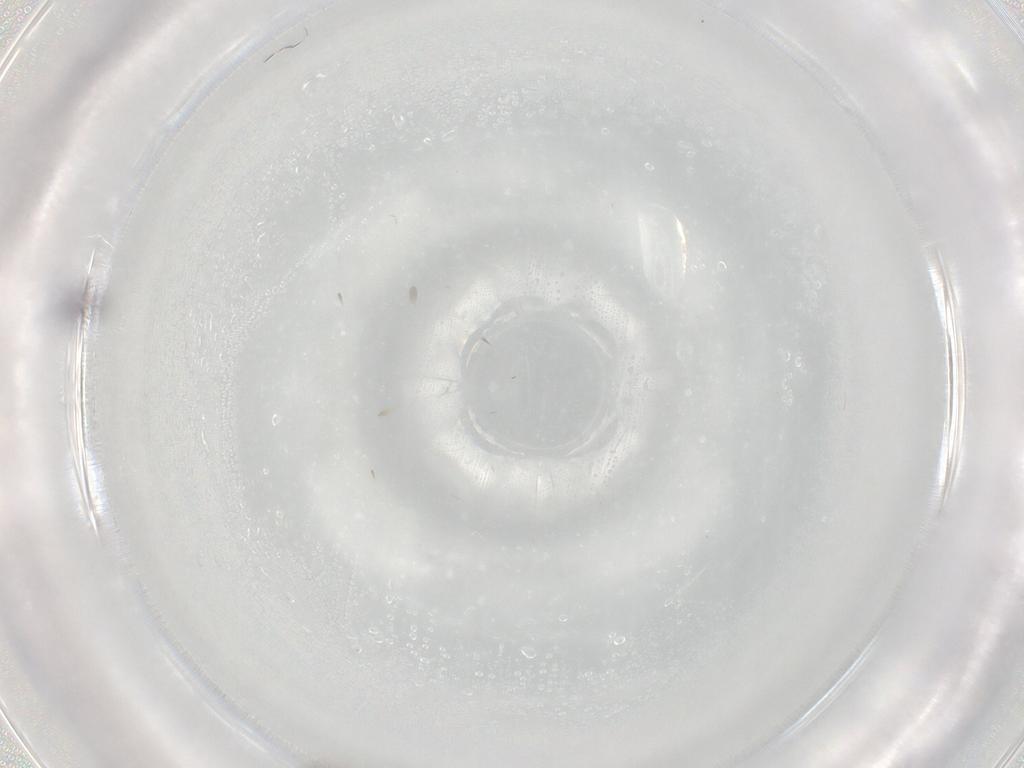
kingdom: Animalia
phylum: Arthropoda
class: Insecta
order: Diptera
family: Ditomyiidae
